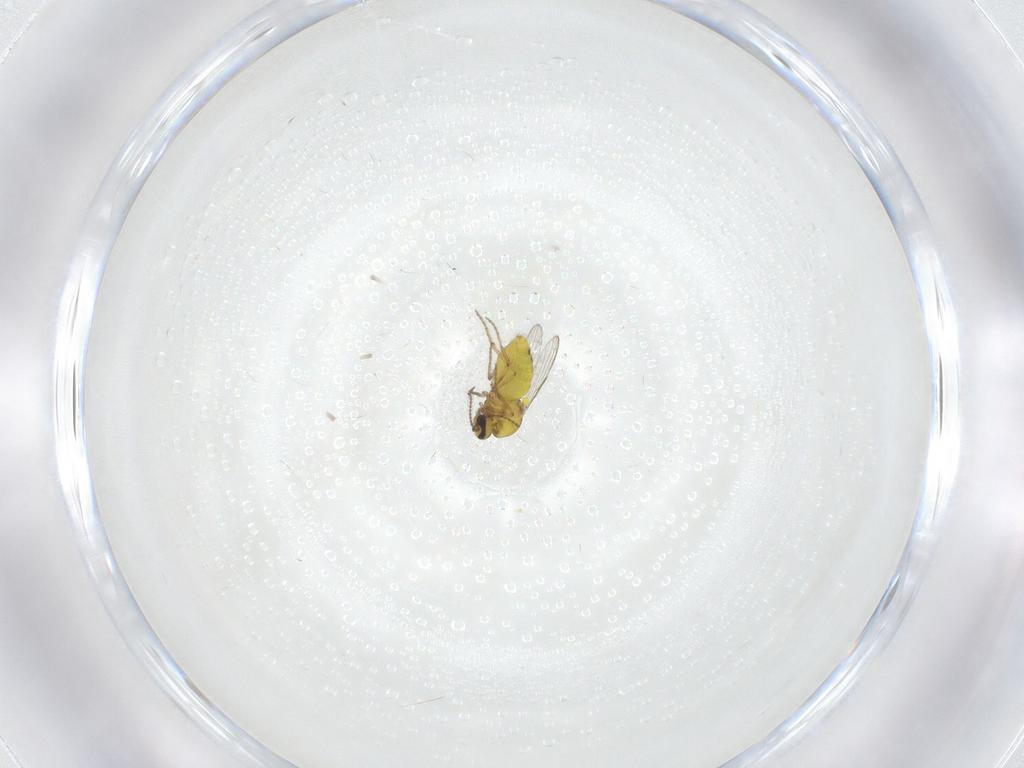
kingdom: Animalia
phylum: Arthropoda
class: Insecta
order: Diptera
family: Ceratopogonidae
